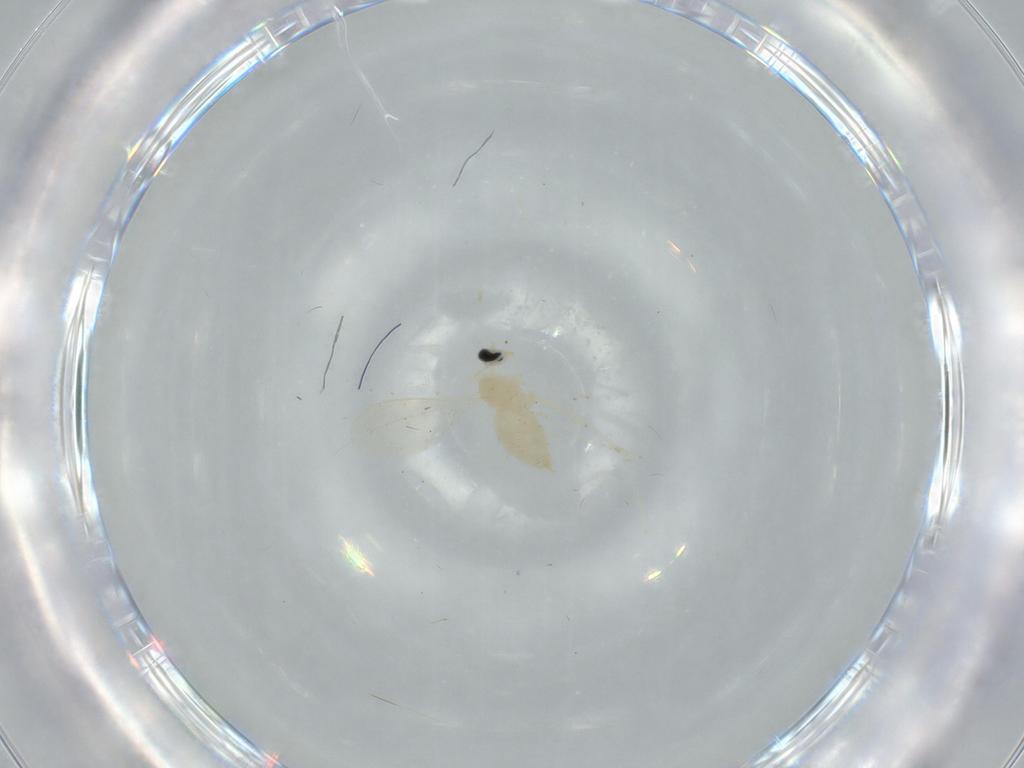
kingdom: Animalia
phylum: Arthropoda
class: Insecta
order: Diptera
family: Cecidomyiidae
